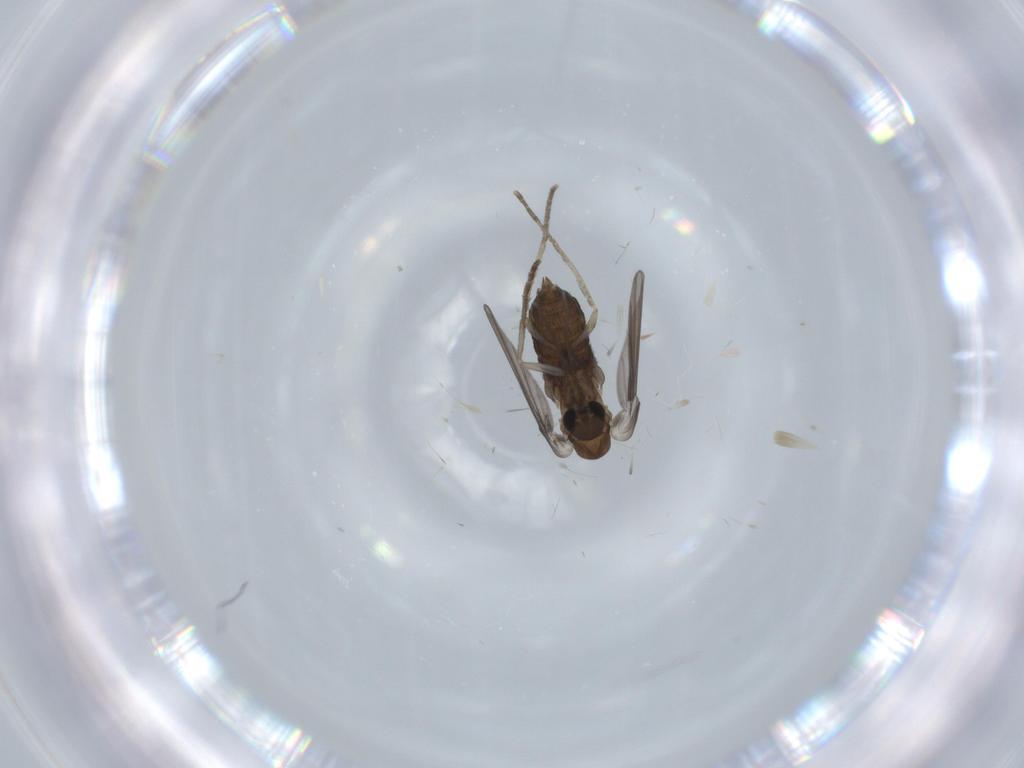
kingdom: Animalia
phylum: Arthropoda
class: Insecta
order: Diptera
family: Psychodidae
